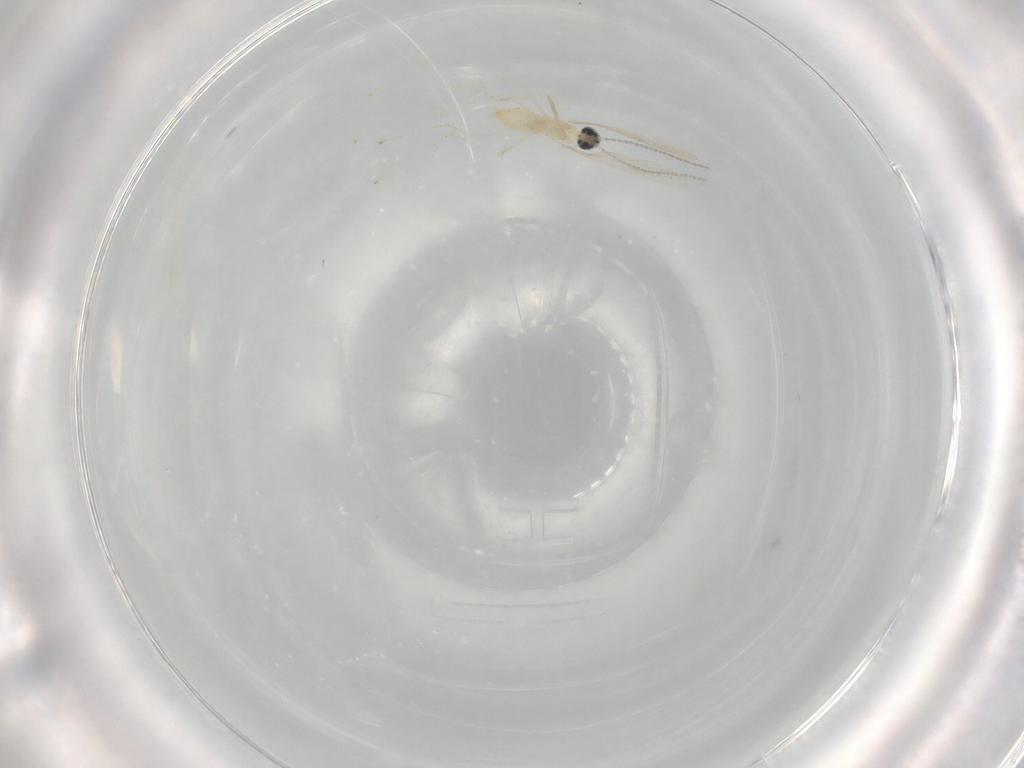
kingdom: Animalia
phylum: Arthropoda
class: Insecta
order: Diptera
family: Cecidomyiidae
